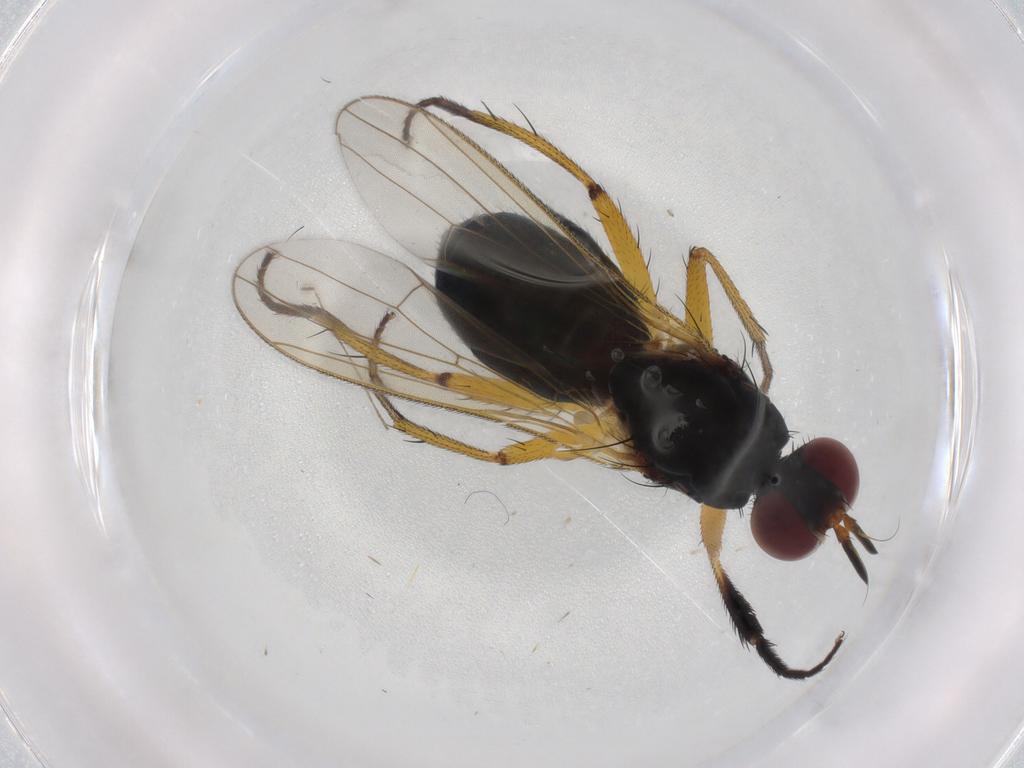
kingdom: Animalia
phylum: Arthropoda
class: Insecta
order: Diptera
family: Muscidae
